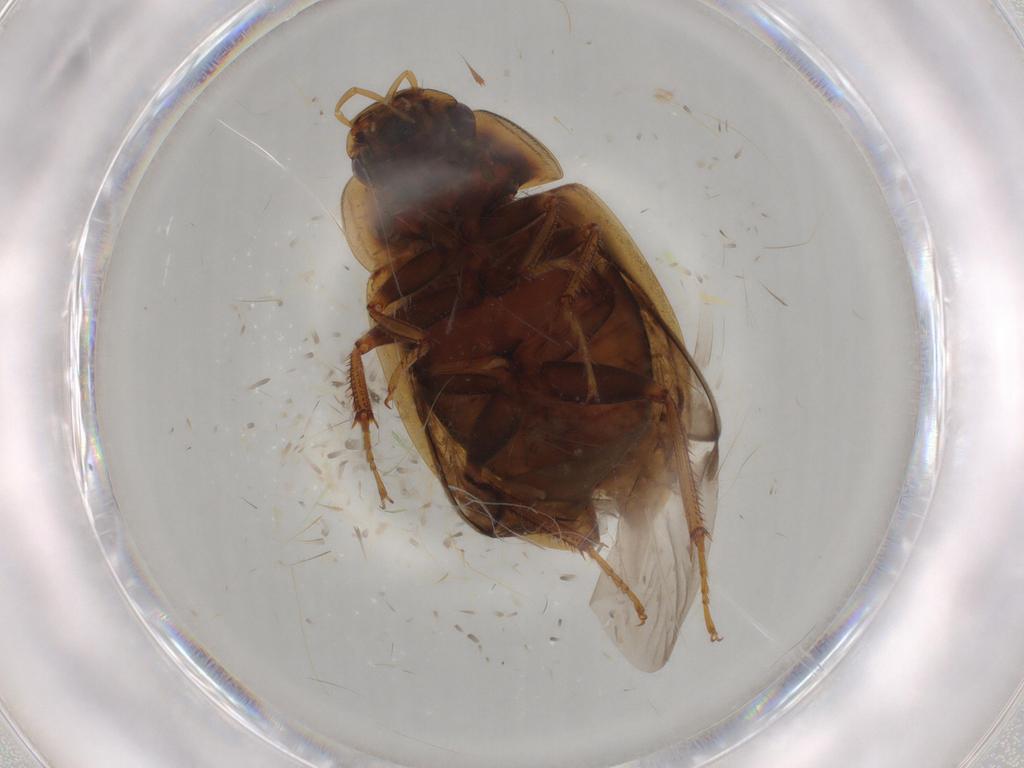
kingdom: Animalia
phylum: Arthropoda
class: Insecta
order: Coleoptera
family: Hydrophilidae
